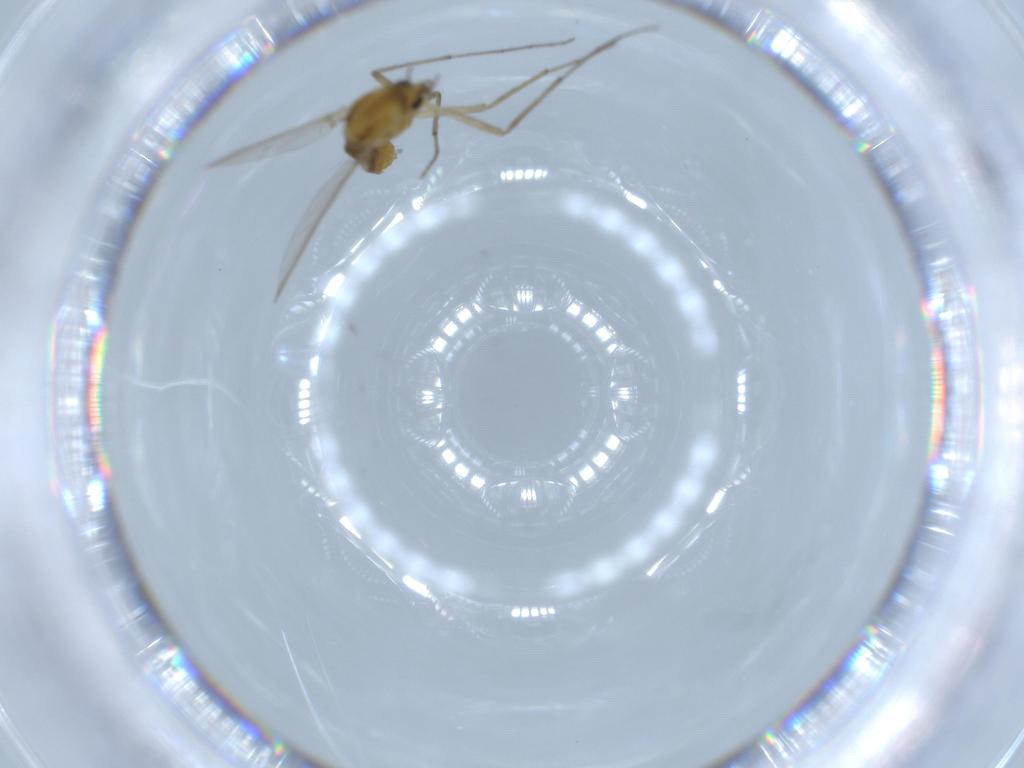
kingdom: Animalia
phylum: Arthropoda
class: Insecta
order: Diptera
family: Chironomidae
